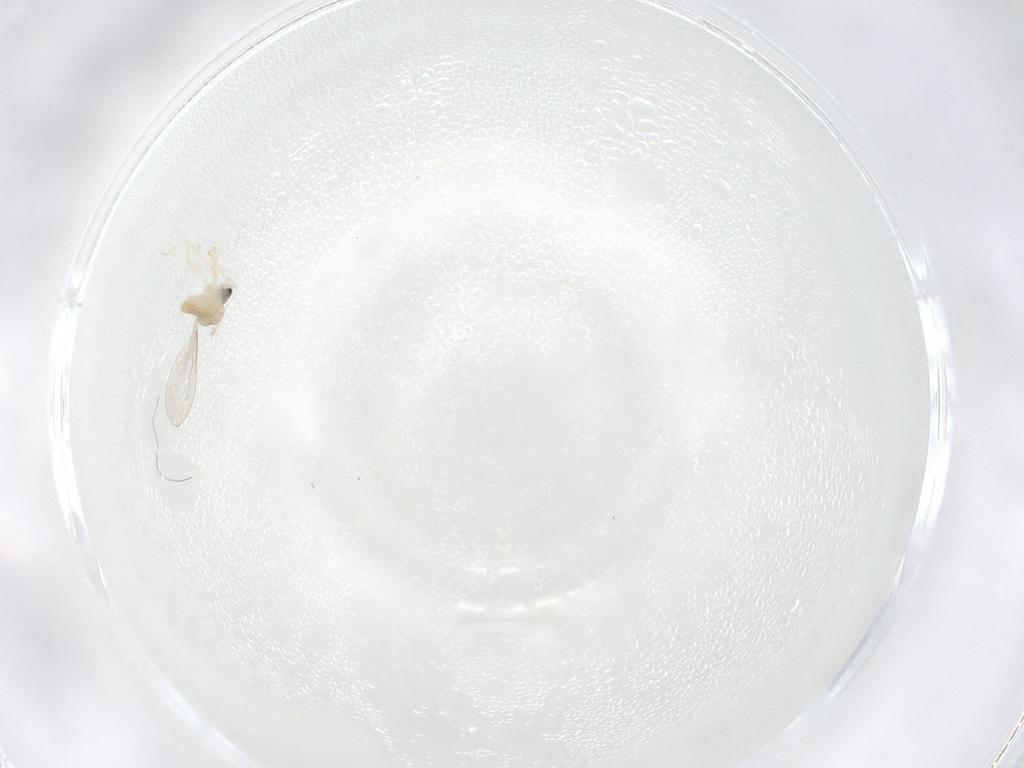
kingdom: Animalia
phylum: Arthropoda
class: Insecta
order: Diptera
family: Cecidomyiidae
